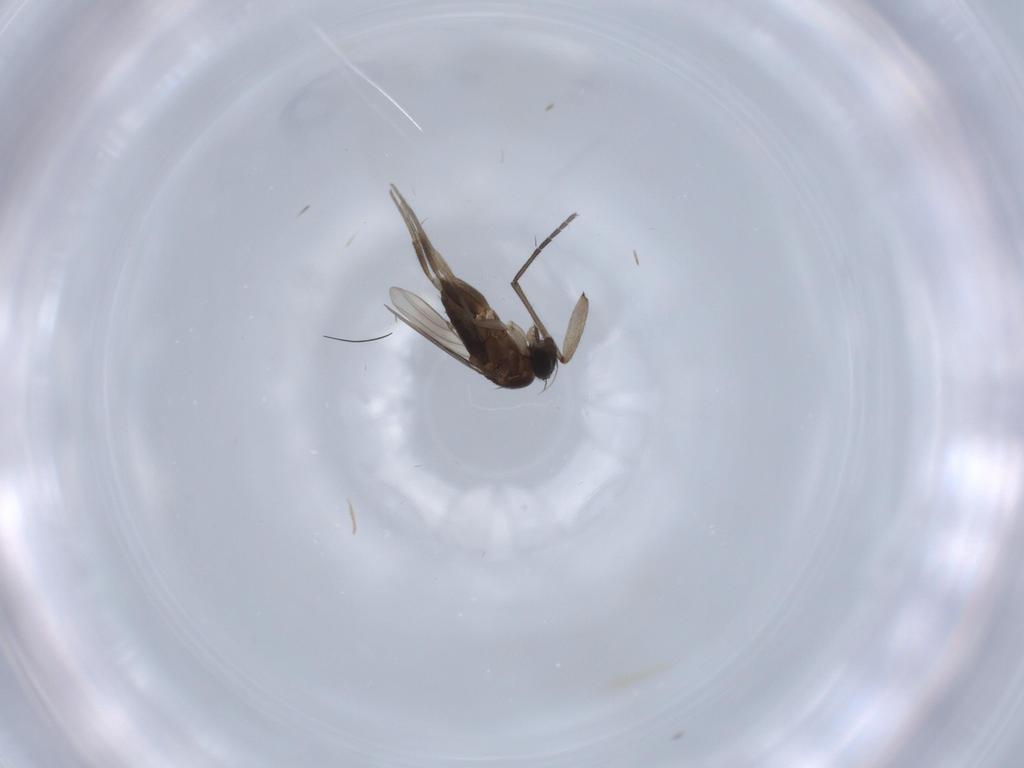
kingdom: Animalia
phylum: Arthropoda
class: Insecta
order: Diptera
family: Phoridae
